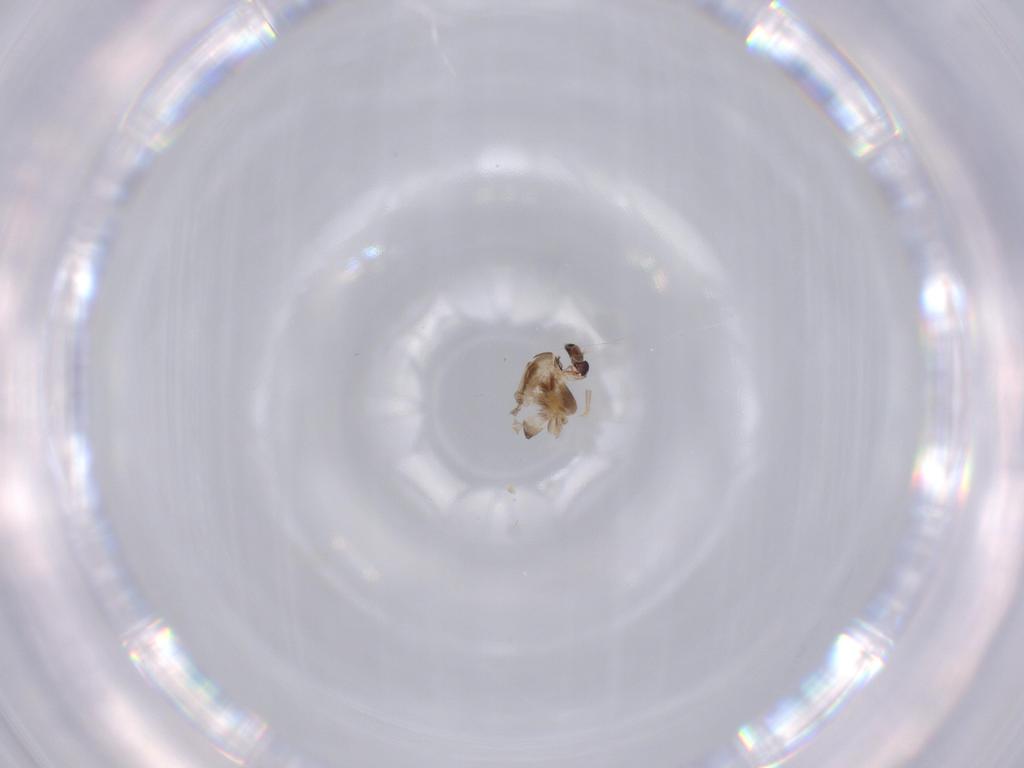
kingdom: Animalia
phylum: Arthropoda
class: Insecta
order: Diptera
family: Chironomidae
